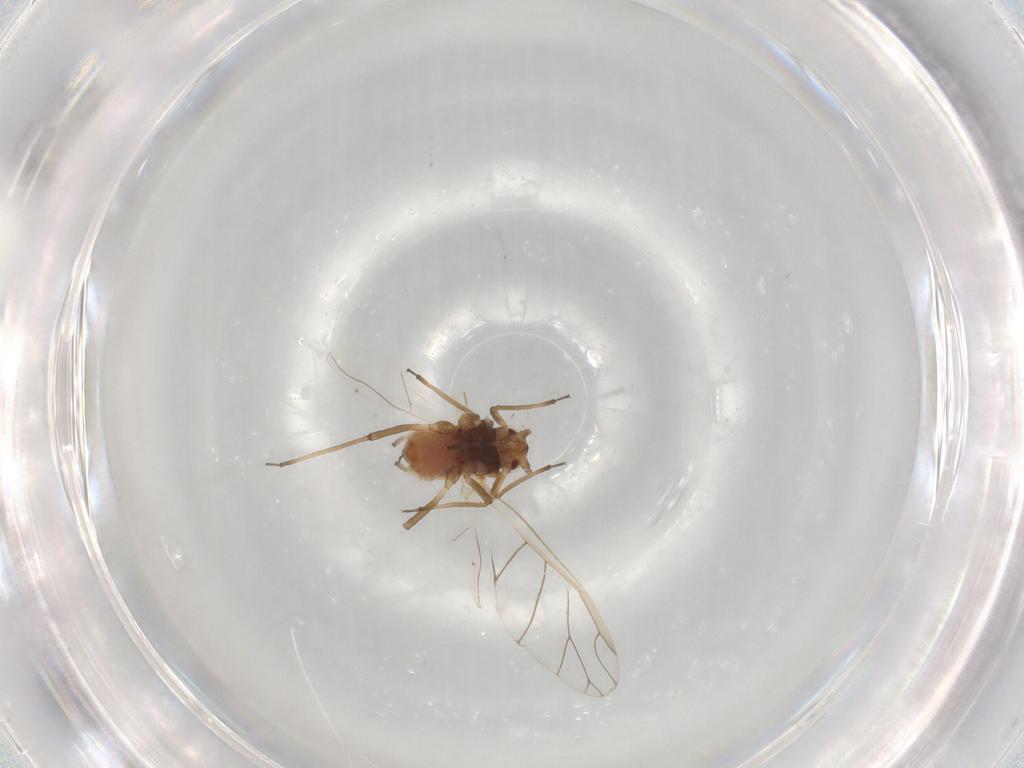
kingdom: Animalia
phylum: Arthropoda
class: Insecta
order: Hemiptera
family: Aphididae
